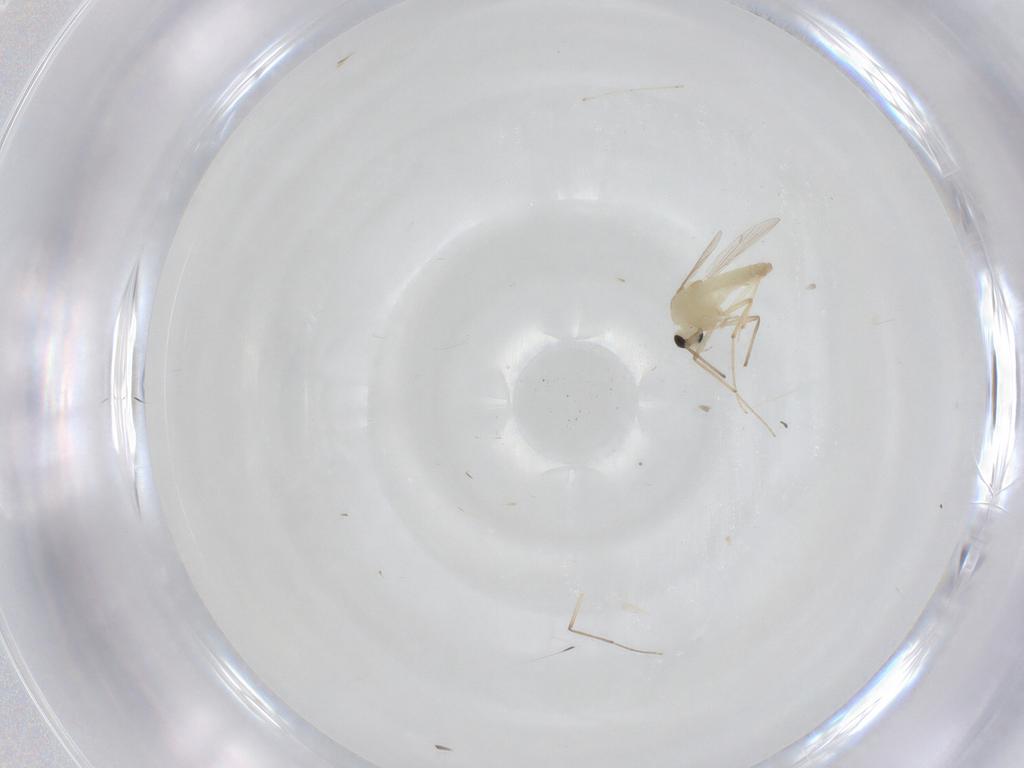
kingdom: Animalia
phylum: Arthropoda
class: Insecta
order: Diptera
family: Chironomidae
